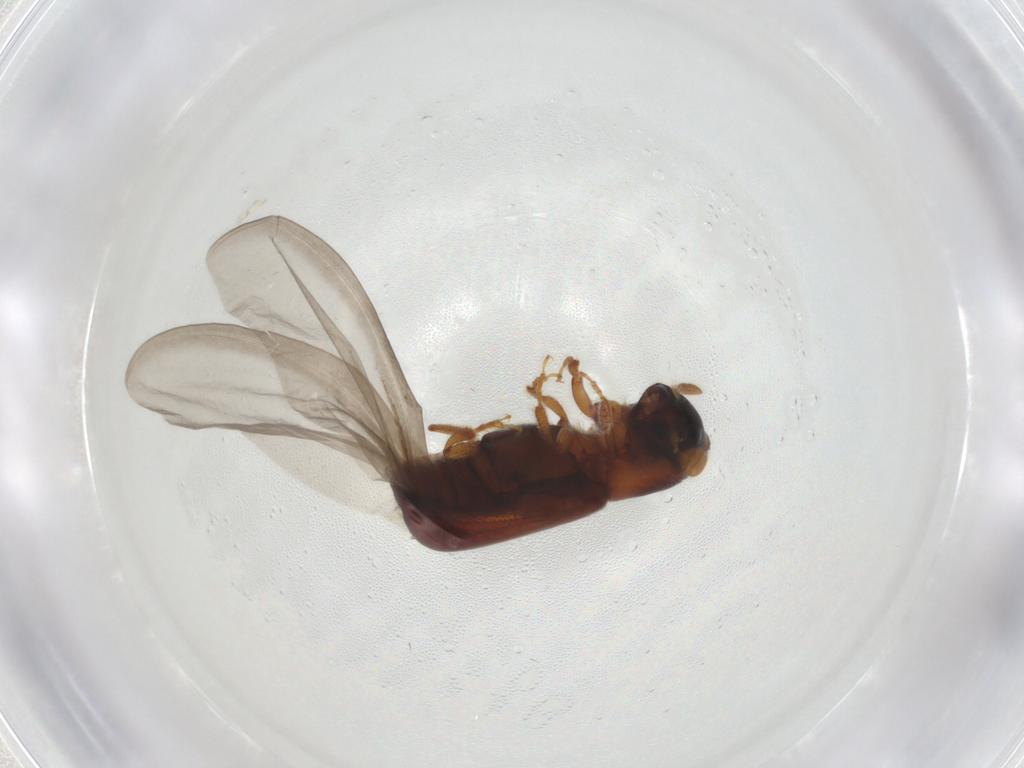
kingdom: Animalia
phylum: Arthropoda
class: Insecta
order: Coleoptera
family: Curculionidae
